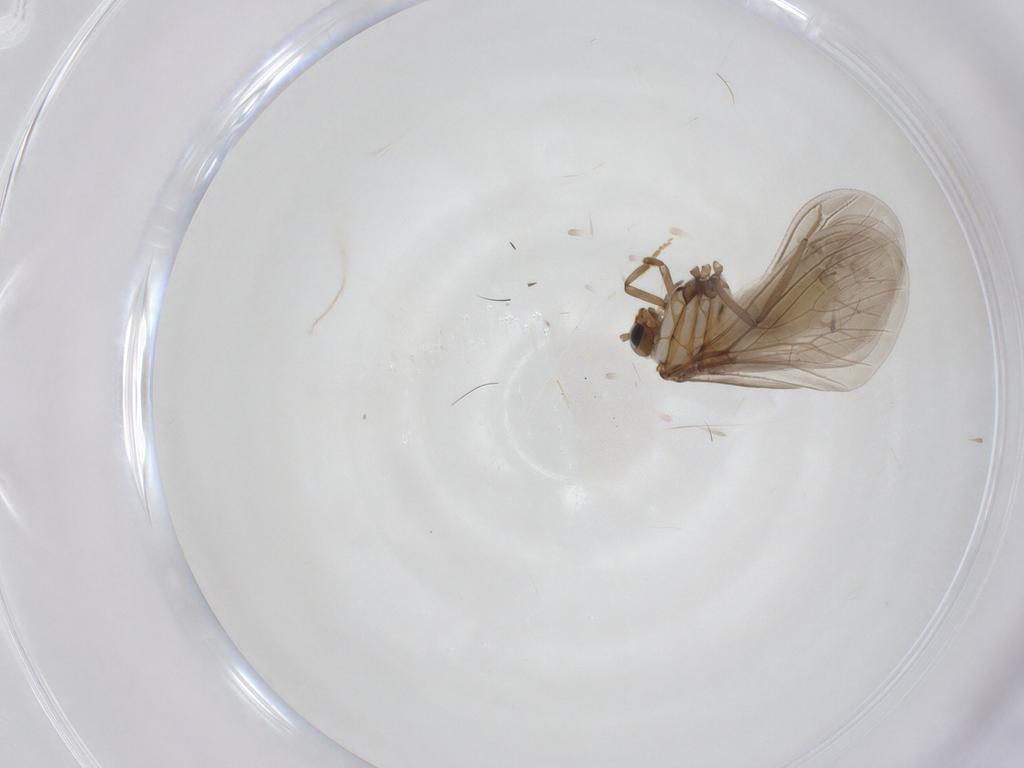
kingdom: Animalia
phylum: Arthropoda
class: Insecta
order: Neuroptera
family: Coniopterygidae
